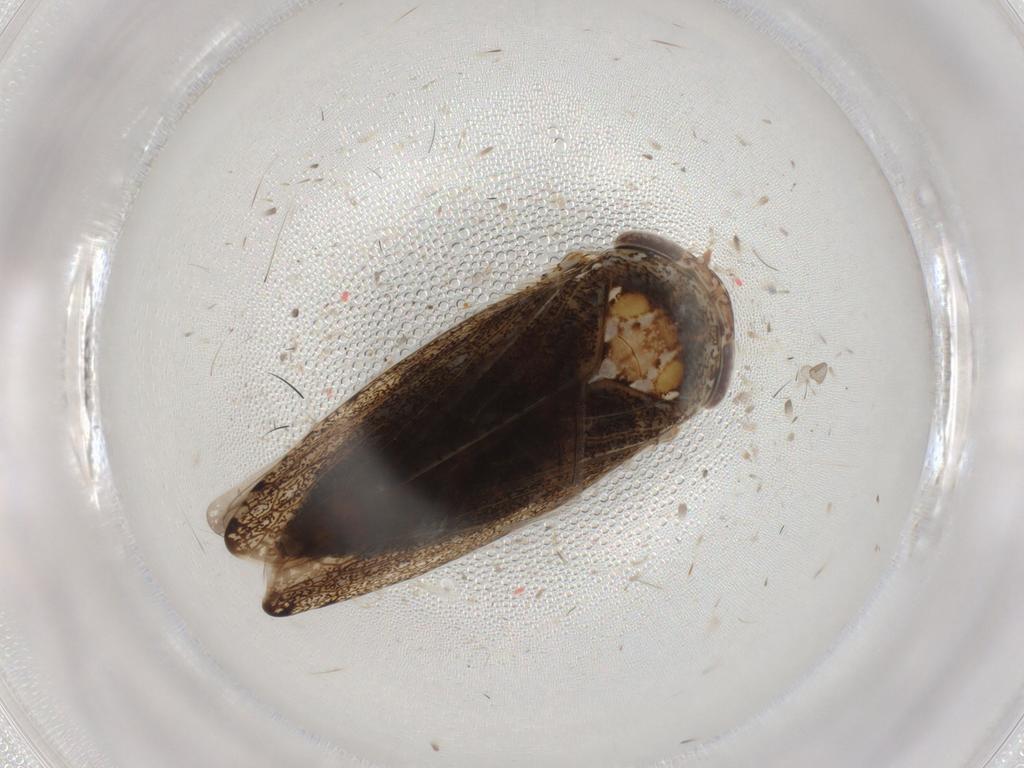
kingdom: Animalia
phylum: Arthropoda
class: Insecta
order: Hemiptera
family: Cicadellidae
